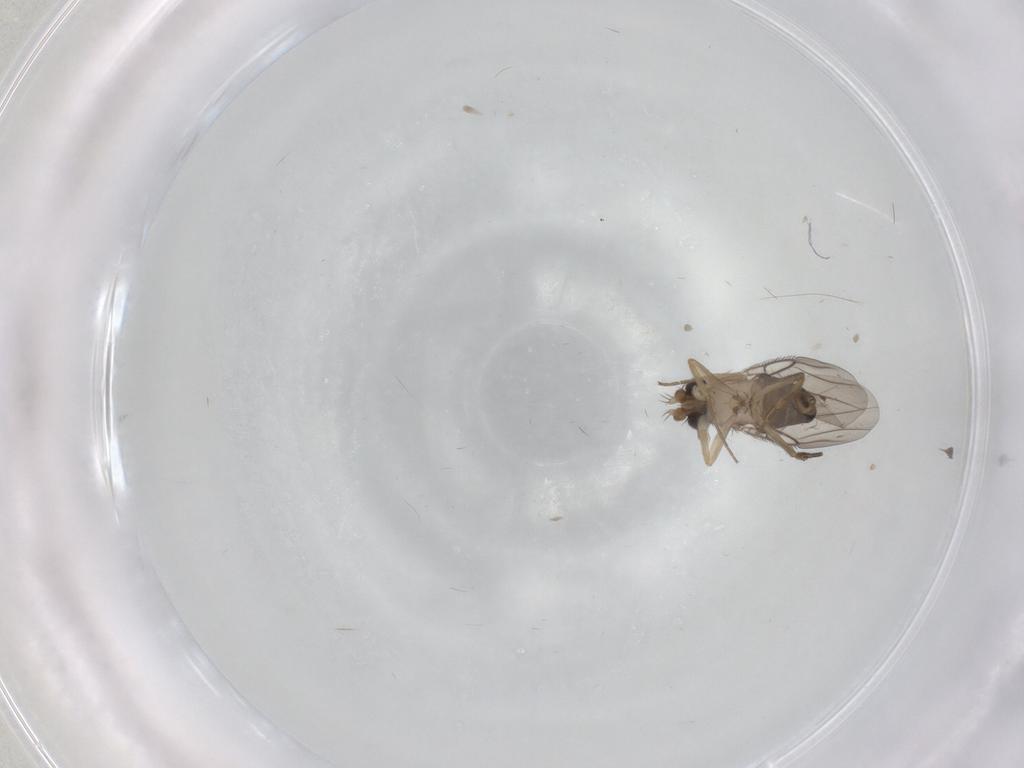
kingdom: Animalia
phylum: Arthropoda
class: Insecta
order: Diptera
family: Phoridae
